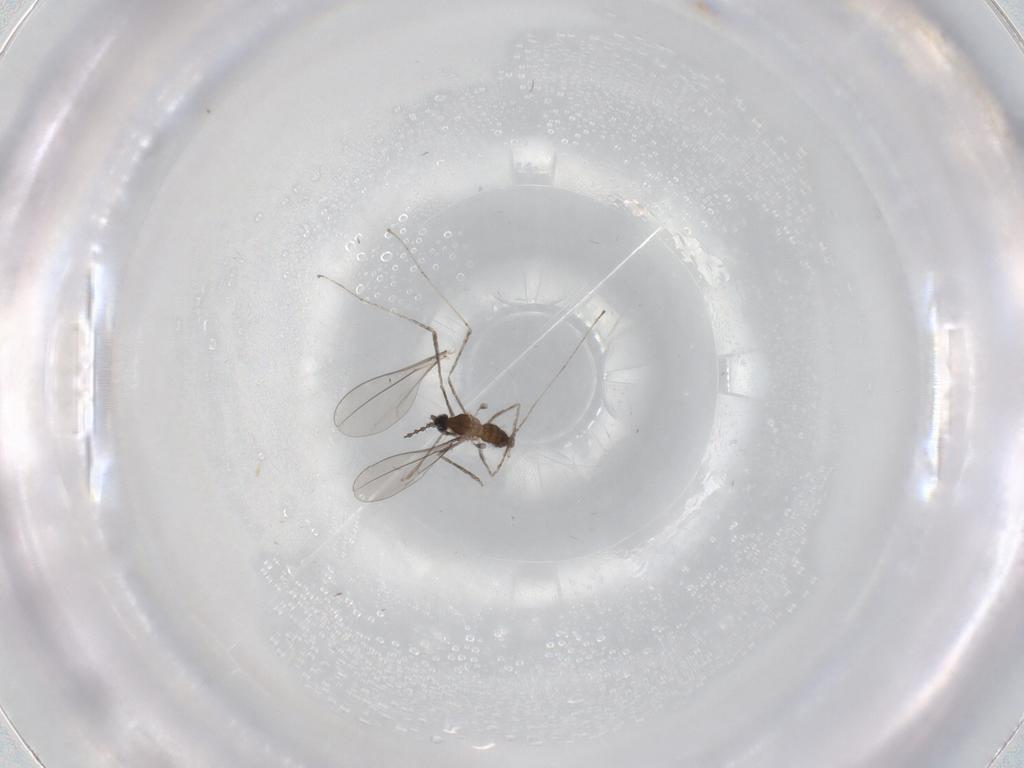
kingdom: Animalia
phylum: Arthropoda
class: Insecta
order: Diptera
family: Cecidomyiidae
